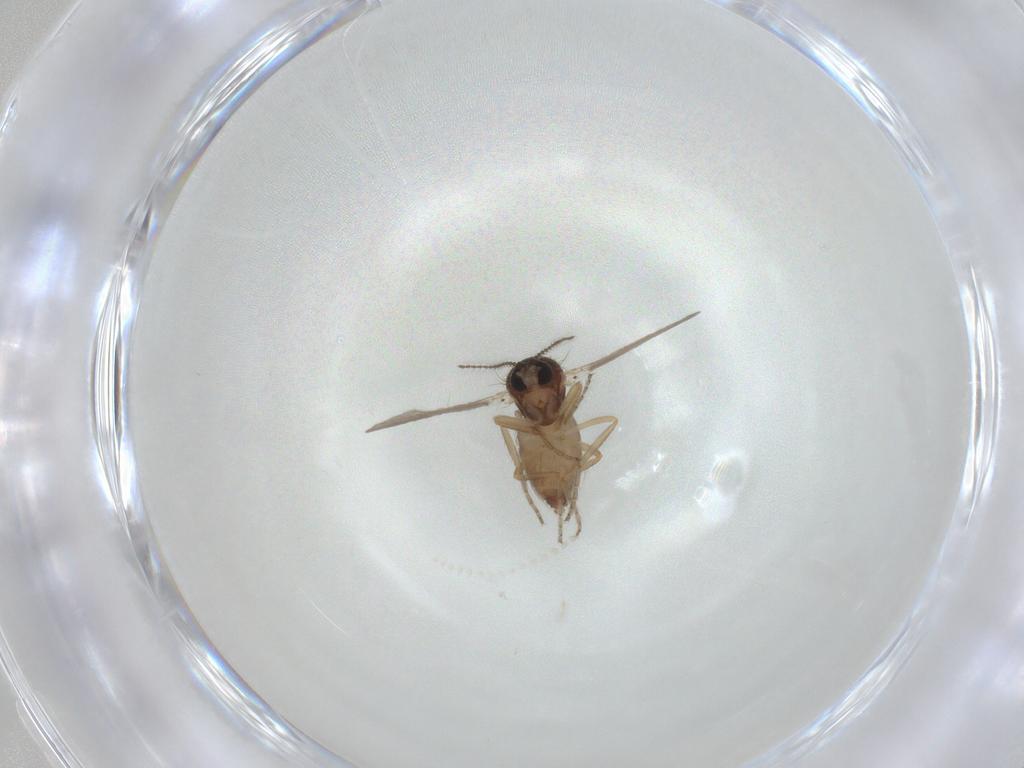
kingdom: Animalia
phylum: Arthropoda
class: Insecta
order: Diptera
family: Ceratopogonidae
